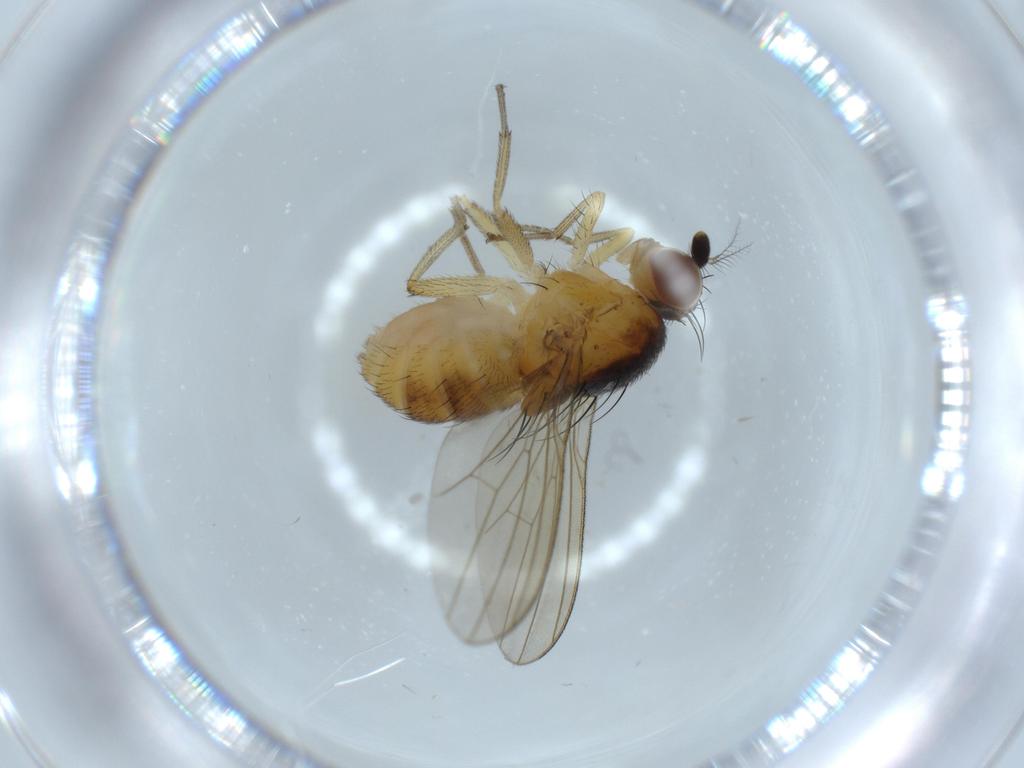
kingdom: Animalia
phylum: Arthropoda
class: Insecta
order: Diptera
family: Lauxaniidae
